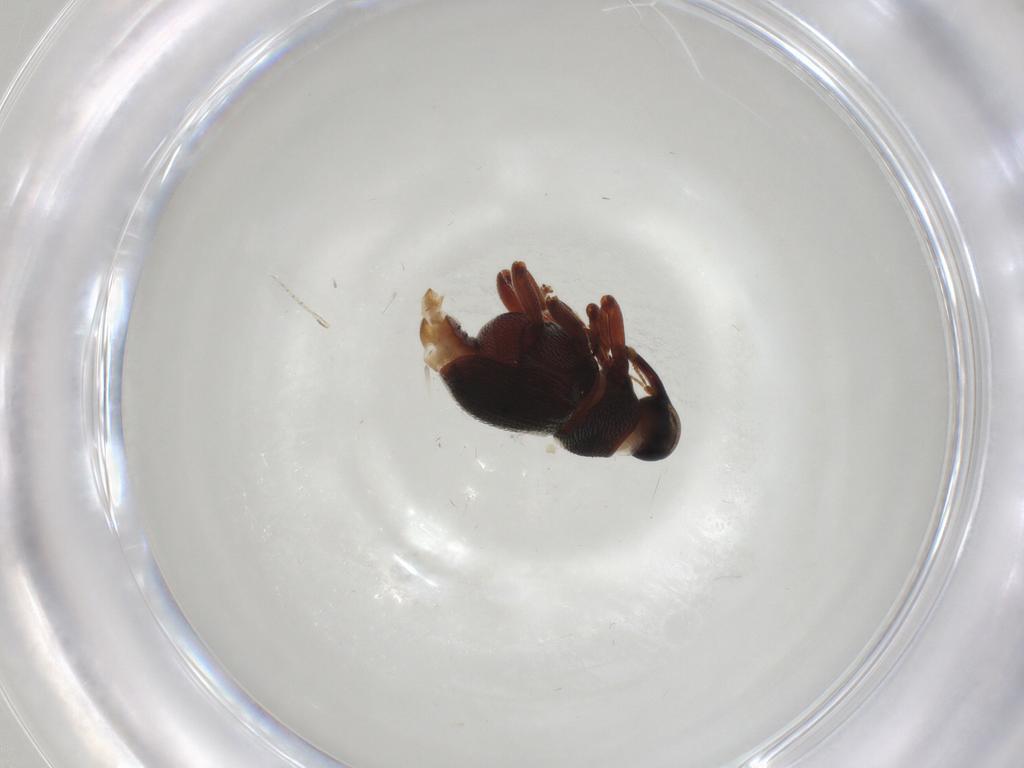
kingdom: Animalia
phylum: Arthropoda
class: Insecta
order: Coleoptera
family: Curculionidae
